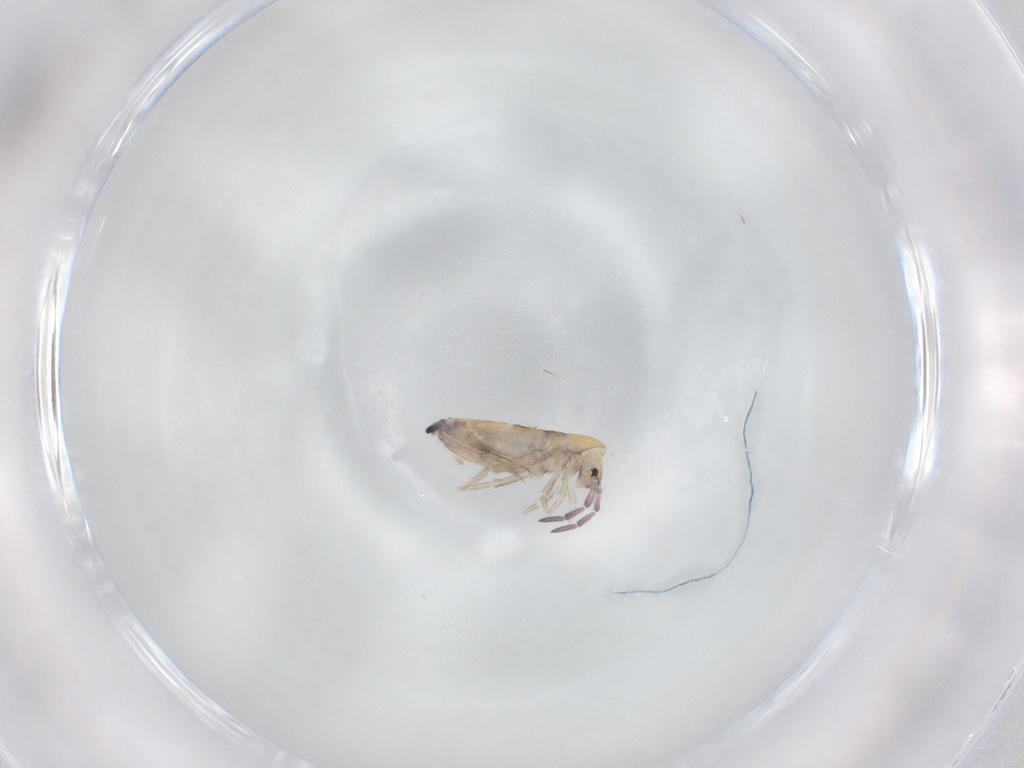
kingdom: Animalia
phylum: Arthropoda
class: Collembola
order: Entomobryomorpha
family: Entomobryidae
